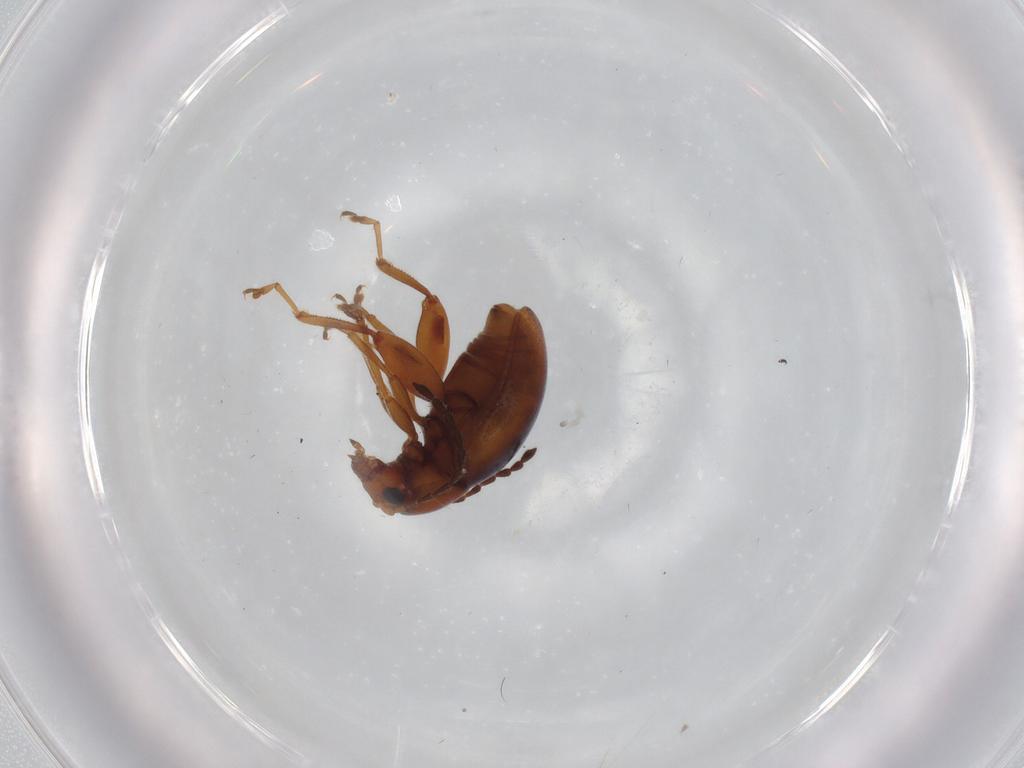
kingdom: Animalia
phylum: Arthropoda
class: Insecta
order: Coleoptera
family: Chrysomelidae
